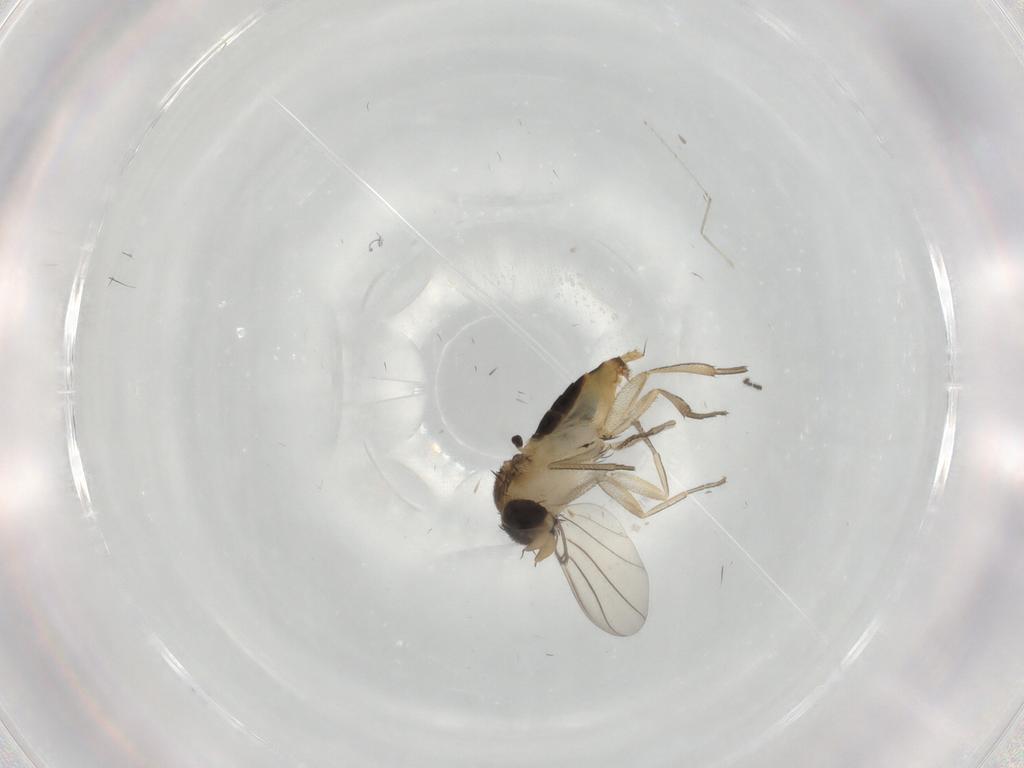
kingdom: Animalia
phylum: Arthropoda
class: Insecta
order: Diptera
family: Phoridae
